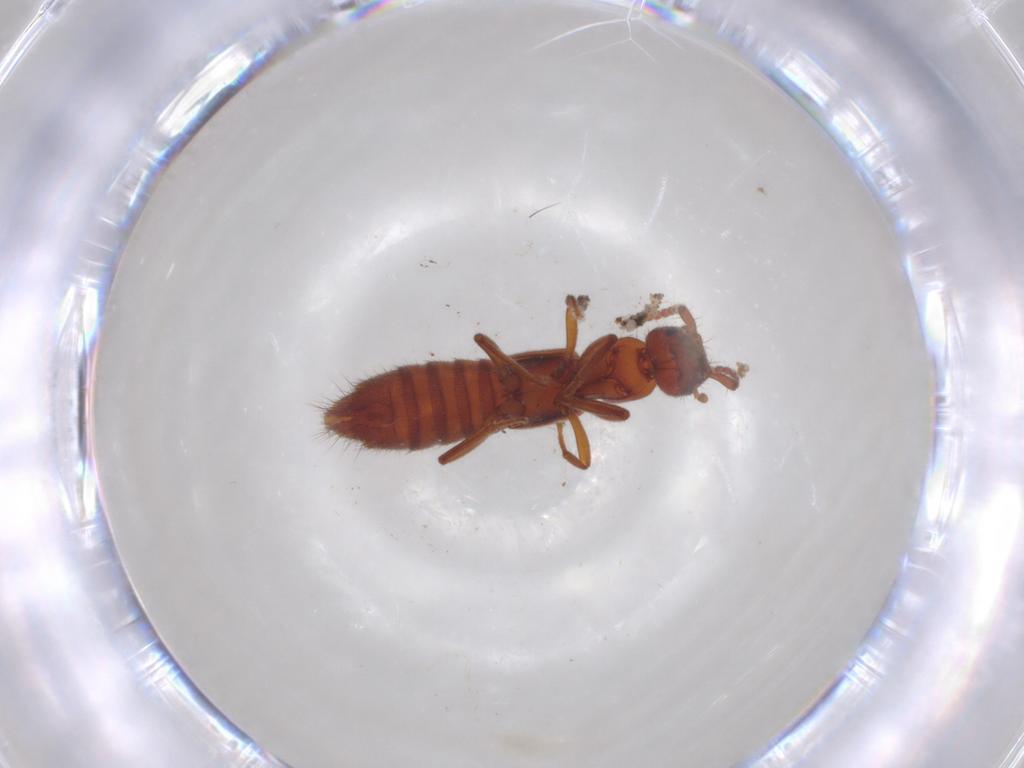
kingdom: Animalia
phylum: Arthropoda
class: Insecta
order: Coleoptera
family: Staphylinidae
